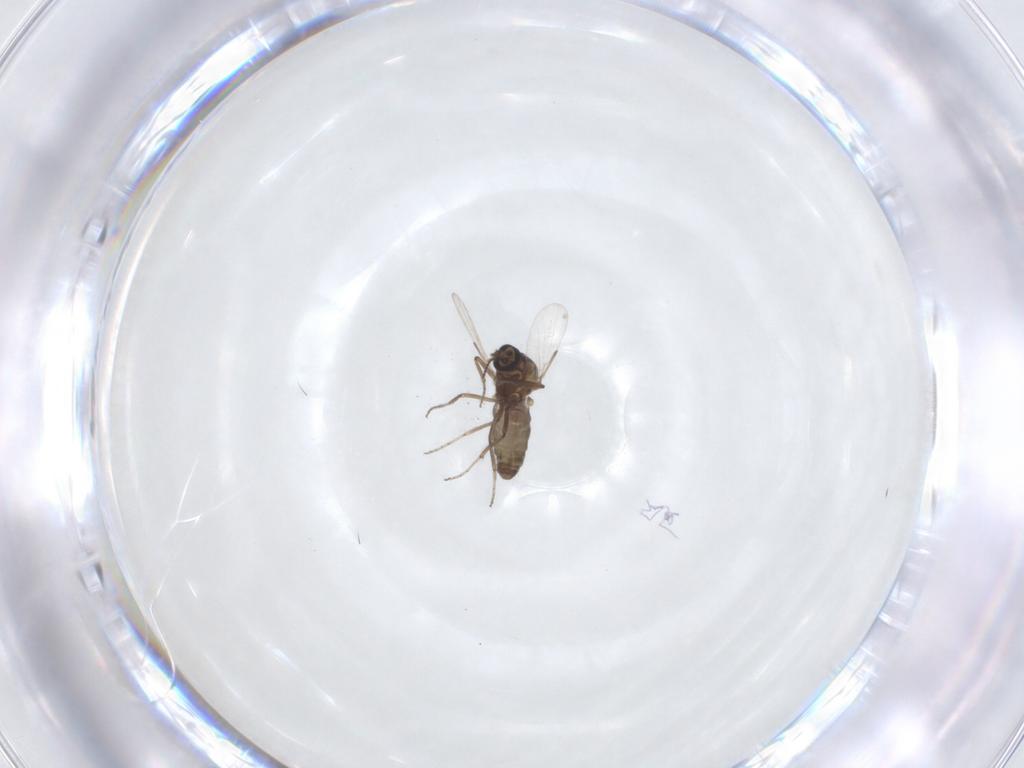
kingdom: Animalia
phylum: Arthropoda
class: Insecta
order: Diptera
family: Ceratopogonidae
